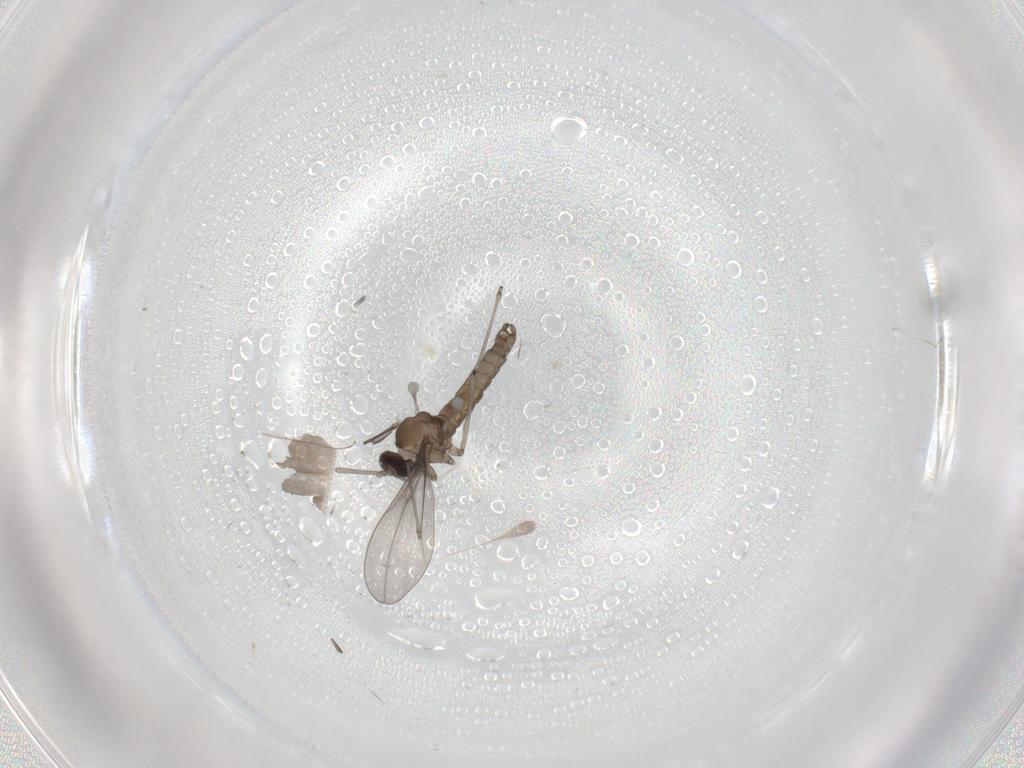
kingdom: Animalia
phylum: Arthropoda
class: Insecta
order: Diptera
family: Cecidomyiidae
